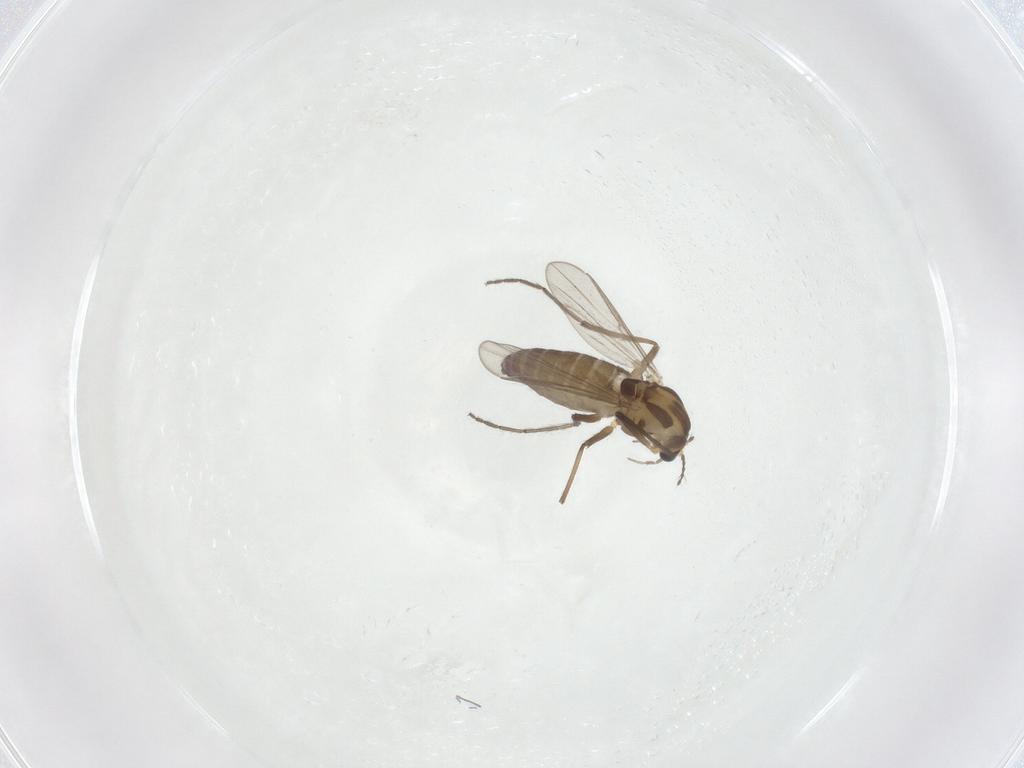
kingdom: Animalia
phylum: Arthropoda
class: Insecta
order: Diptera
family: Chironomidae
